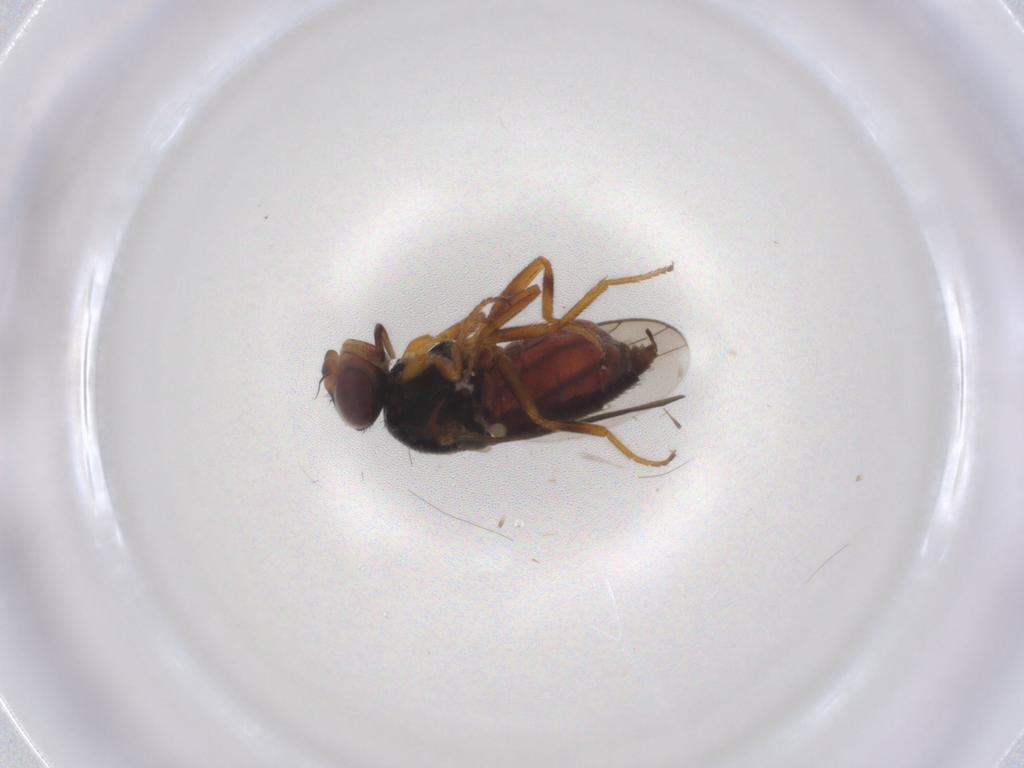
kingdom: Animalia
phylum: Arthropoda
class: Insecta
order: Diptera
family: Chloropidae
